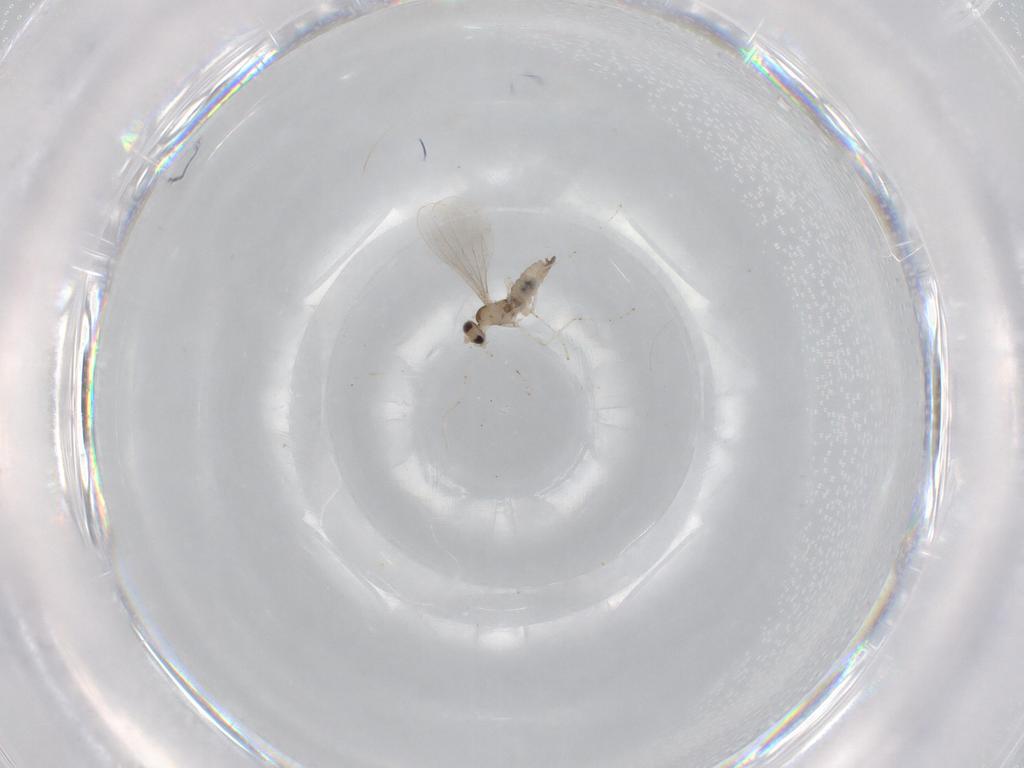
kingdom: Animalia
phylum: Arthropoda
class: Insecta
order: Diptera
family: Cecidomyiidae
